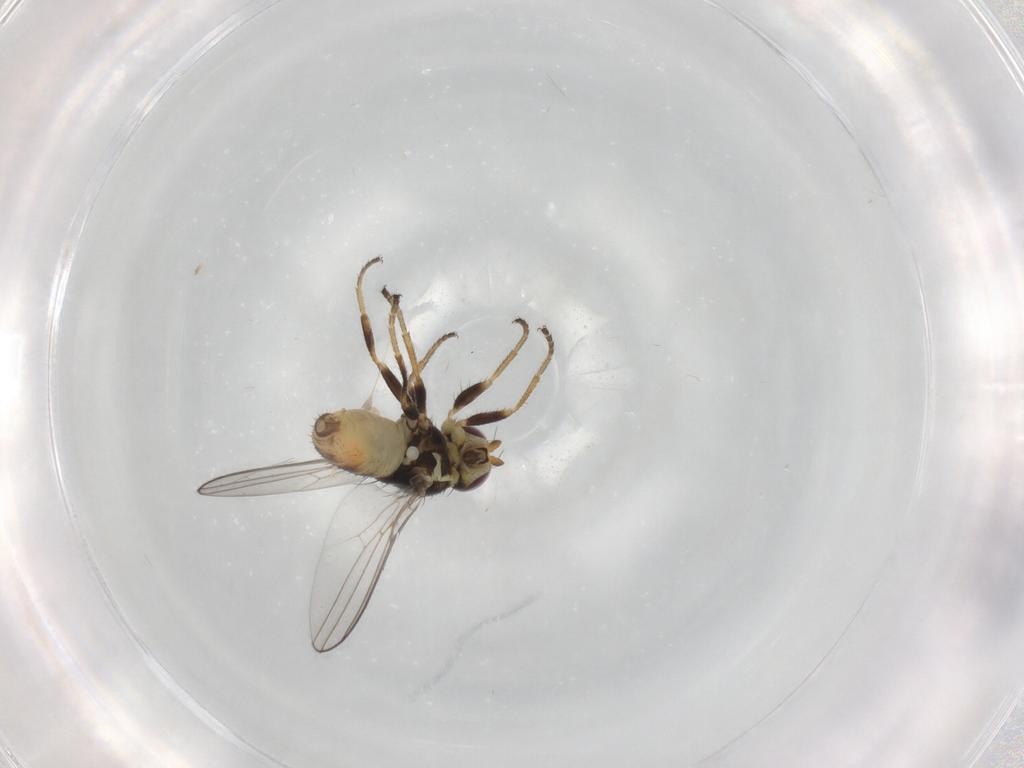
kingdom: Animalia
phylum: Arthropoda
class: Insecta
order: Diptera
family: Chloropidae
